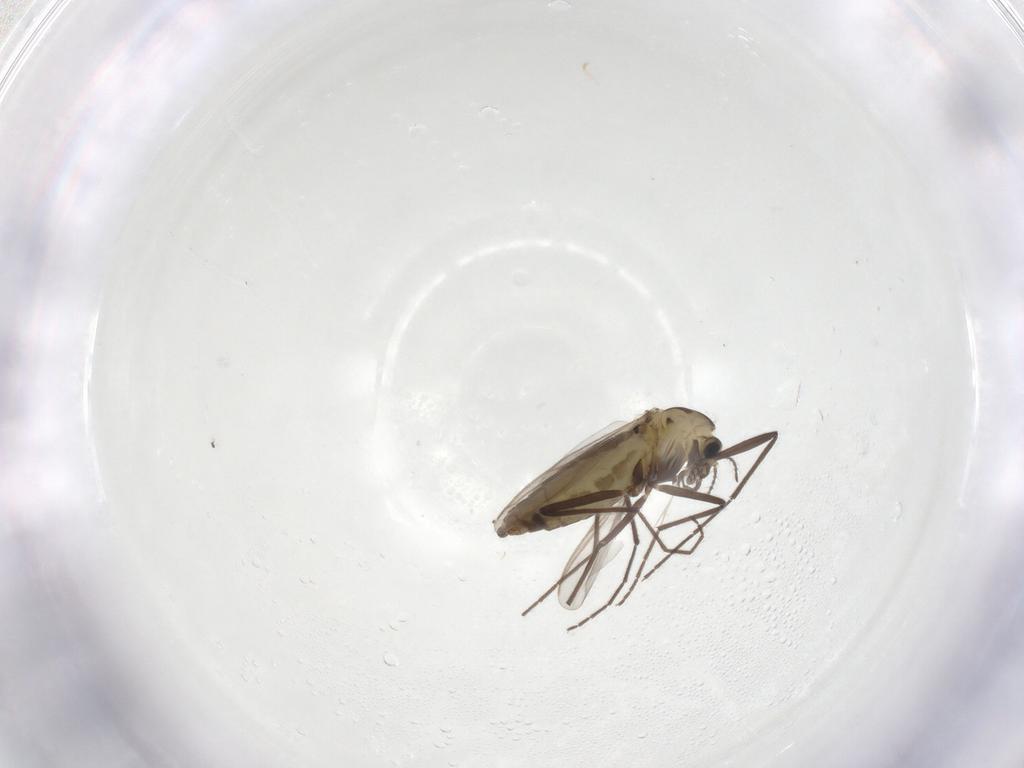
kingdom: Animalia
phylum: Arthropoda
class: Insecta
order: Diptera
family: Chironomidae
